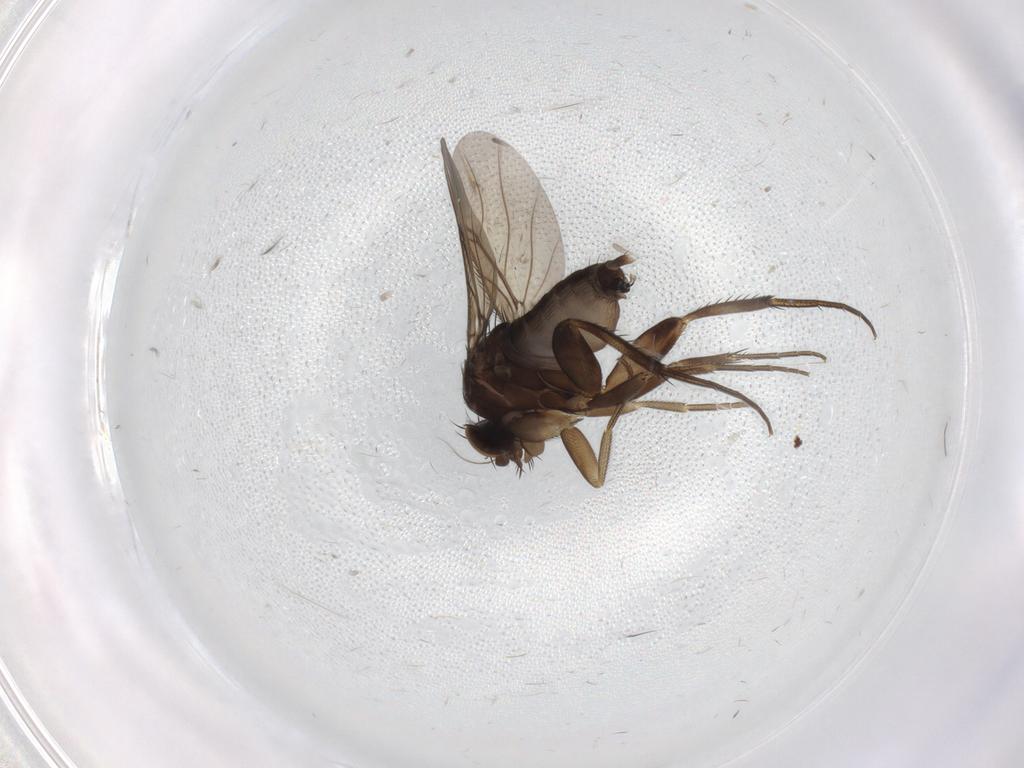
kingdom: Animalia
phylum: Arthropoda
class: Insecta
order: Diptera
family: Phoridae
